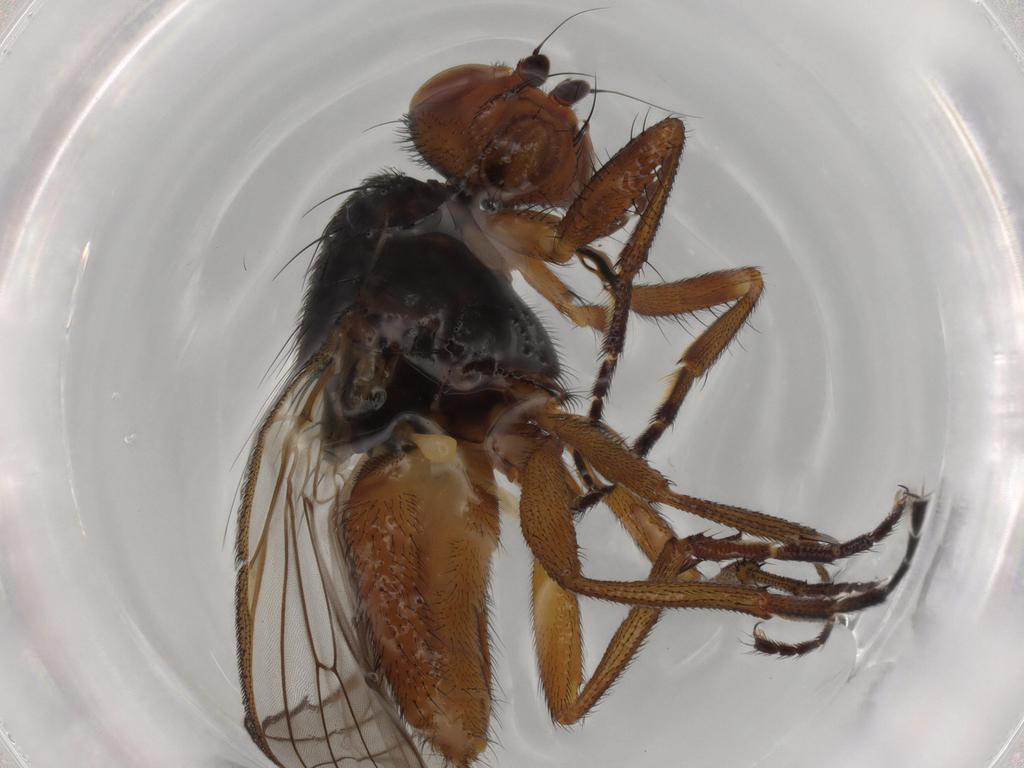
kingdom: Animalia
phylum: Arthropoda
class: Insecta
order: Diptera
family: Heleomyzidae
